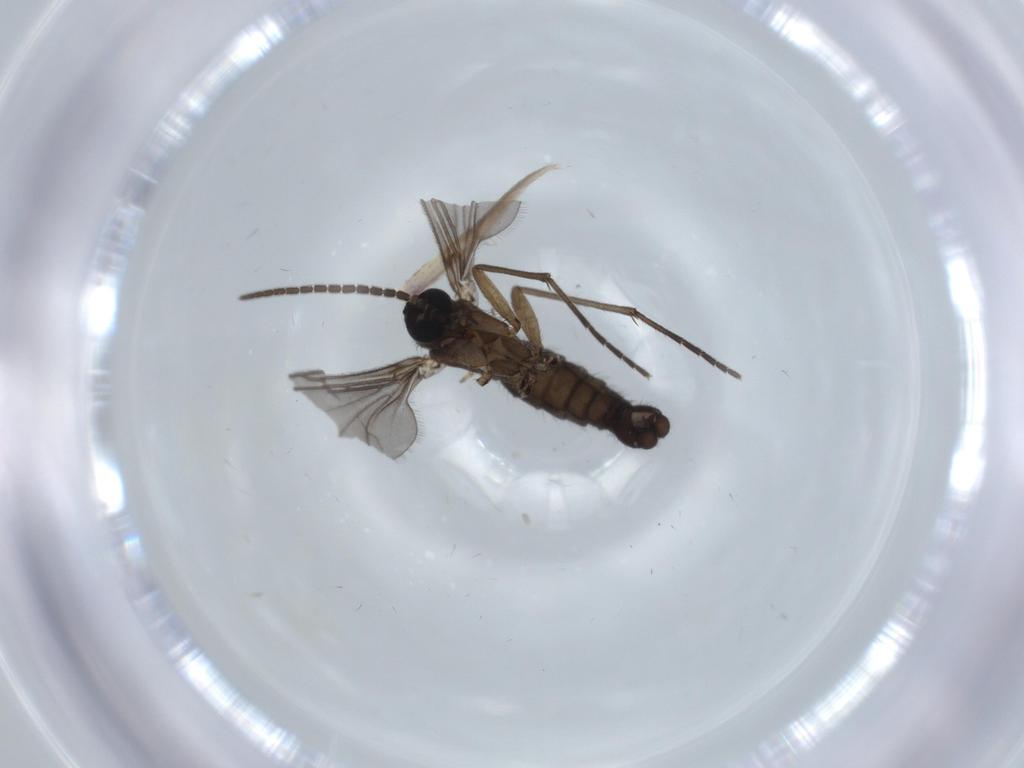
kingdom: Animalia
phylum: Arthropoda
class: Insecta
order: Diptera
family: Sciaridae
